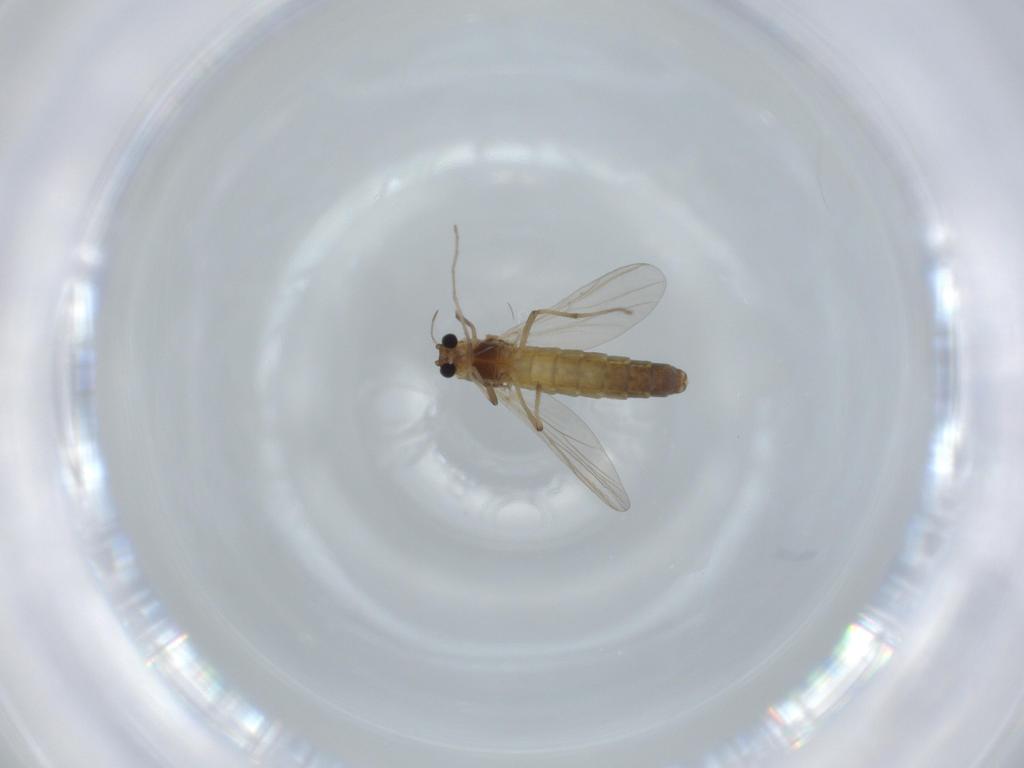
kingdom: Animalia
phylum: Arthropoda
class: Insecta
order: Diptera
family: Chironomidae
